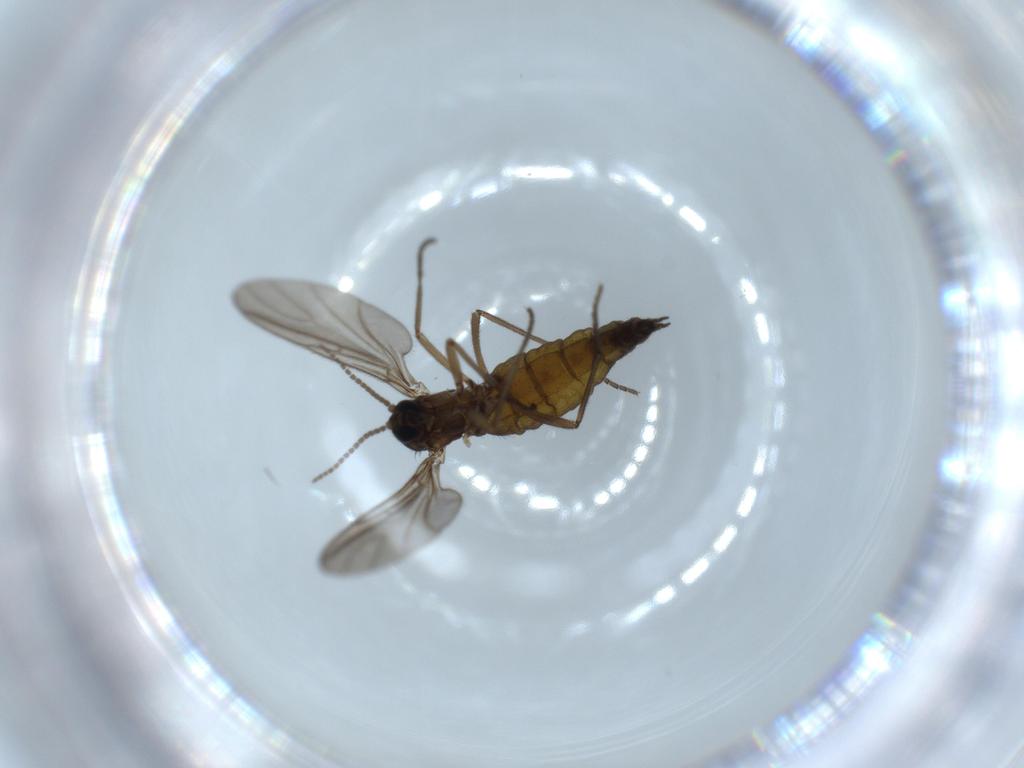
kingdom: Animalia
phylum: Arthropoda
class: Insecta
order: Diptera
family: Sciaridae
